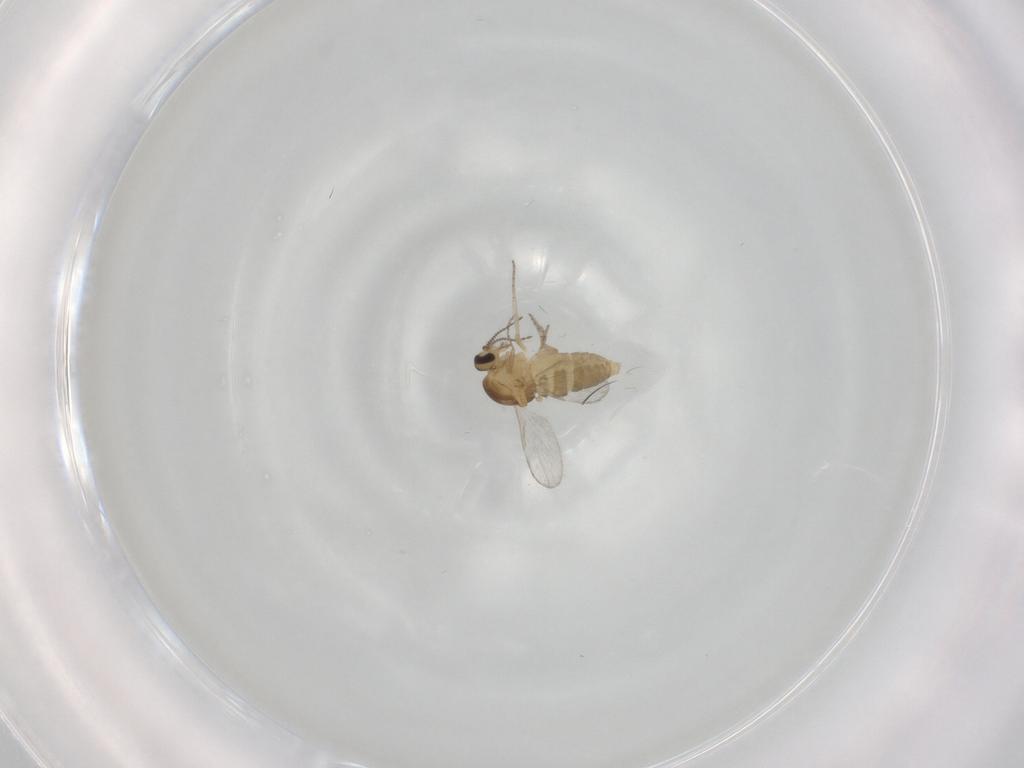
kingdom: Animalia
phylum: Arthropoda
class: Insecta
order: Diptera
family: Ceratopogonidae
